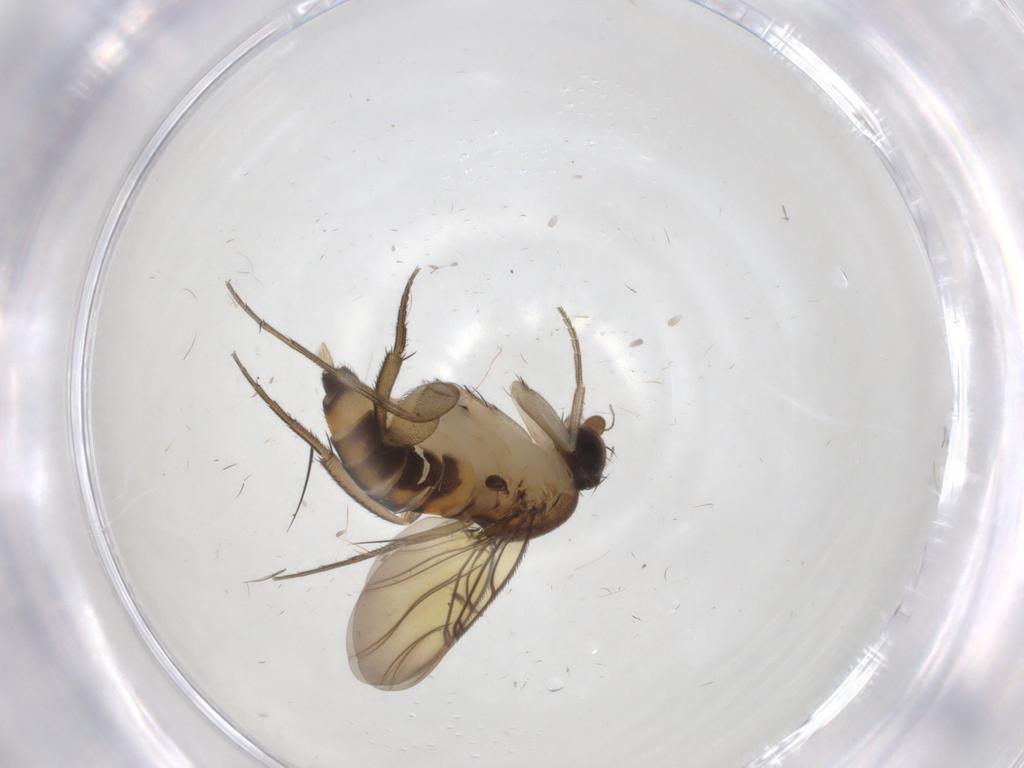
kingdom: Animalia
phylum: Arthropoda
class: Insecta
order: Diptera
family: Phoridae
